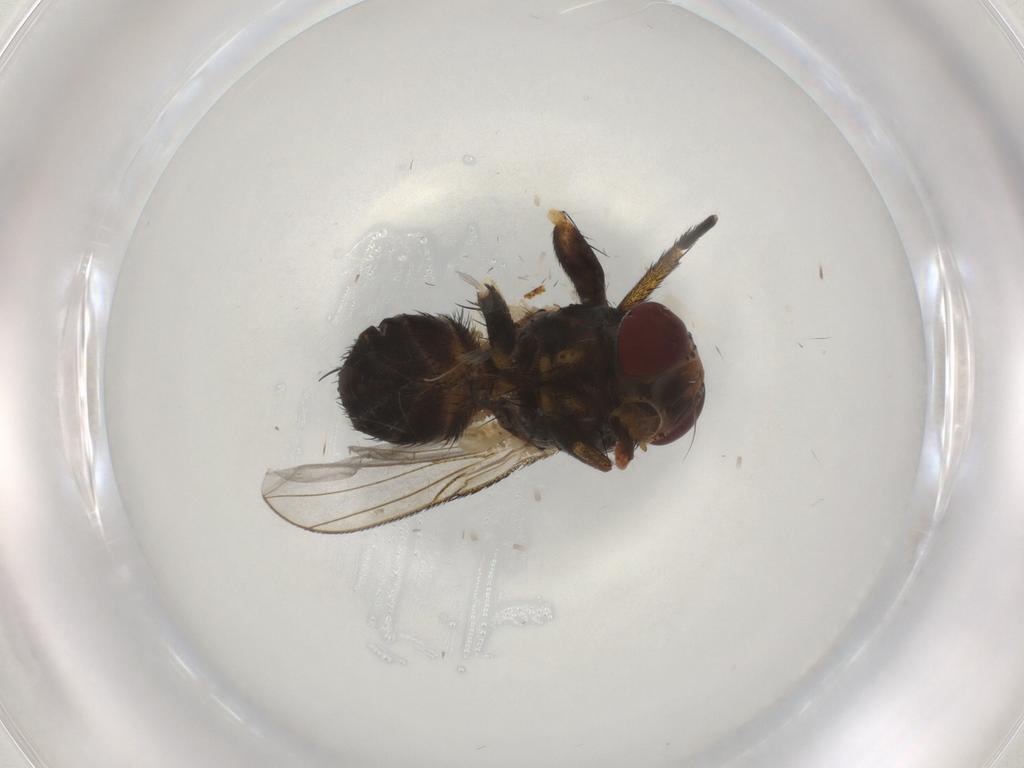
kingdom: Animalia
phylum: Arthropoda
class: Insecta
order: Diptera
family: Tachinidae
